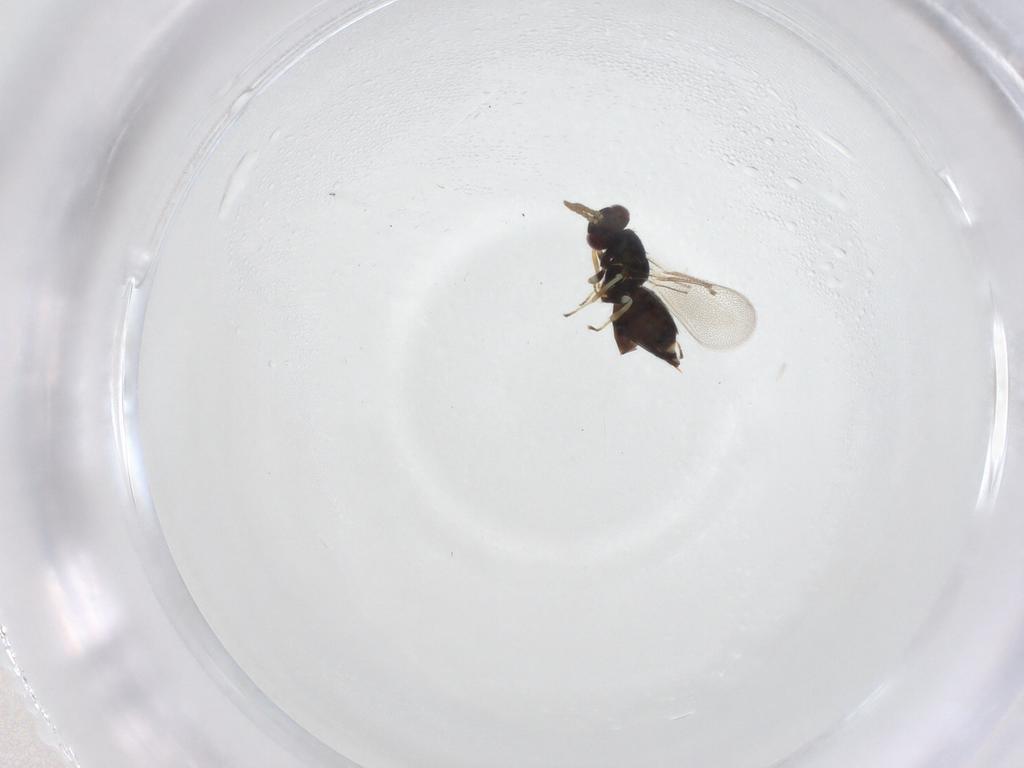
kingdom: Animalia
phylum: Arthropoda
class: Insecta
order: Hymenoptera
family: Eulophidae
